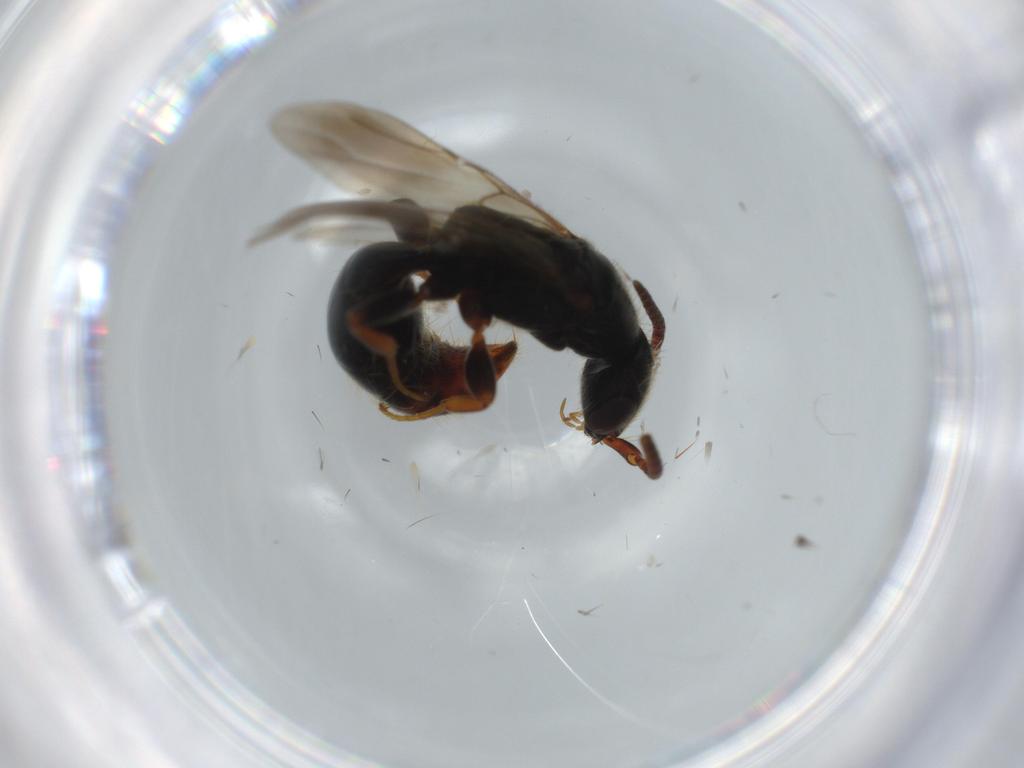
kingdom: Animalia
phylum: Arthropoda
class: Insecta
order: Hymenoptera
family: Bethylidae
